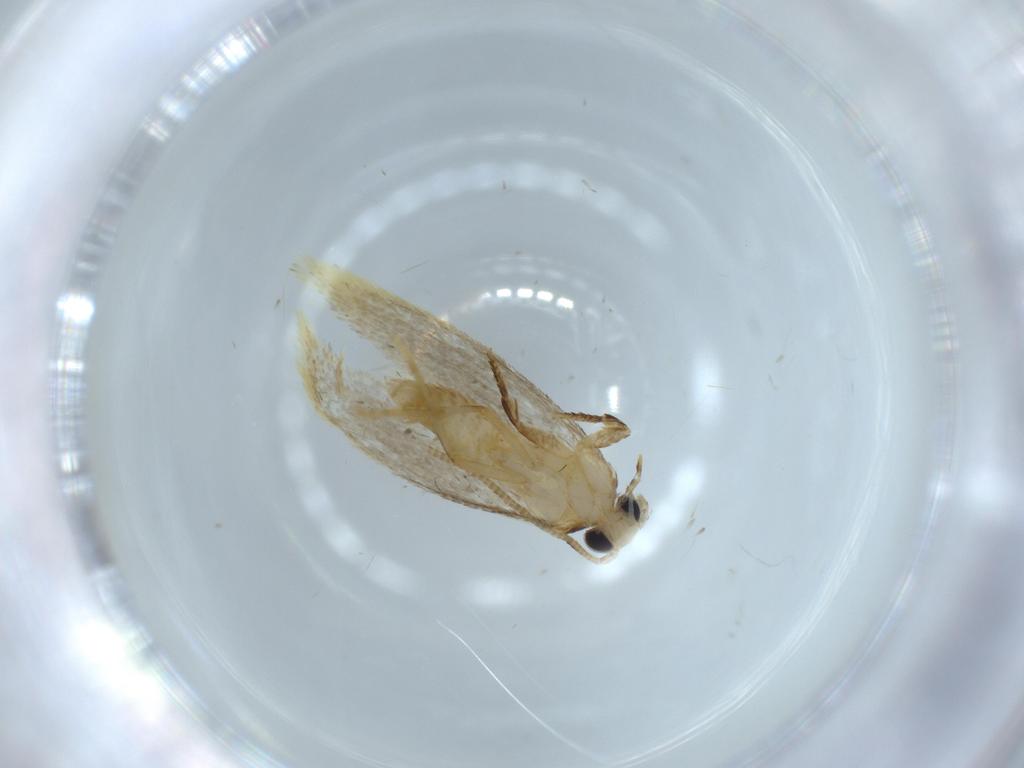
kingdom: Animalia
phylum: Arthropoda
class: Insecta
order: Lepidoptera
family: Tineidae
